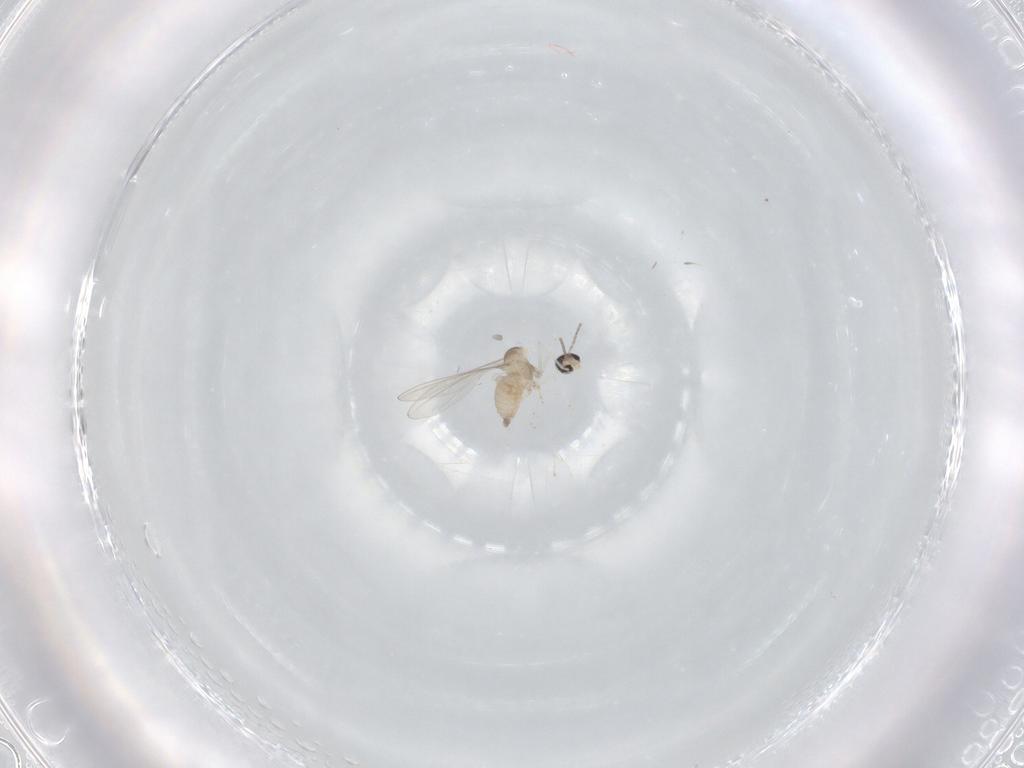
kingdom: Animalia
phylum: Arthropoda
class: Insecta
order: Diptera
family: Cecidomyiidae
